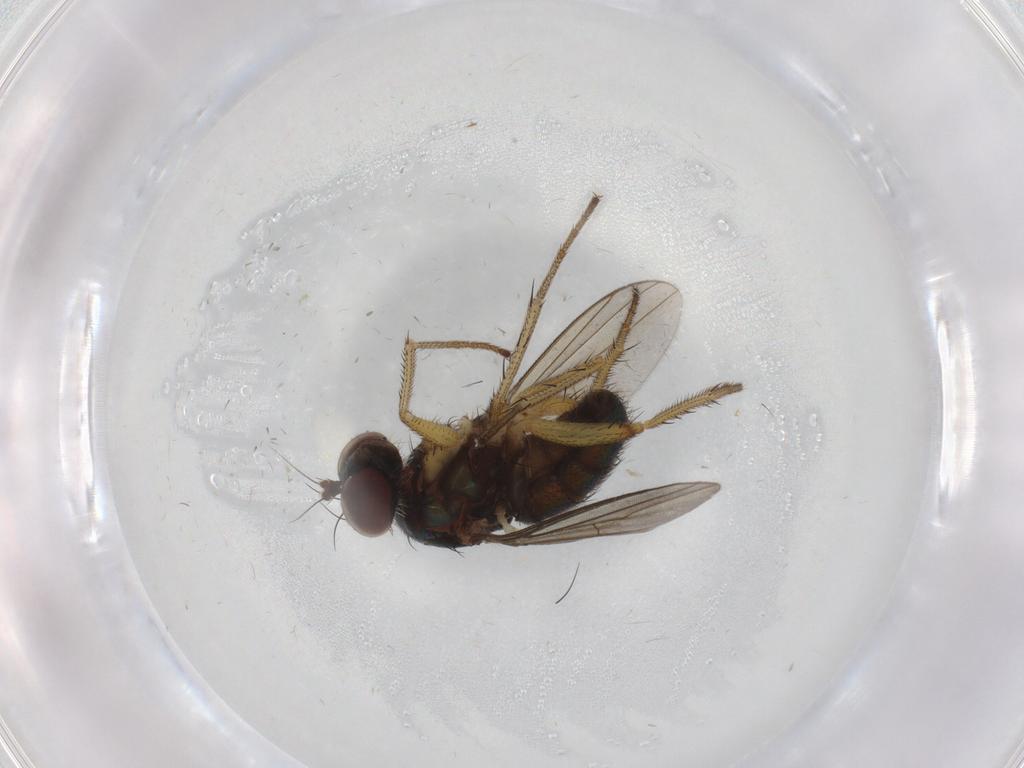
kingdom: Animalia
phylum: Arthropoda
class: Insecta
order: Diptera
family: Dolichopodidae
